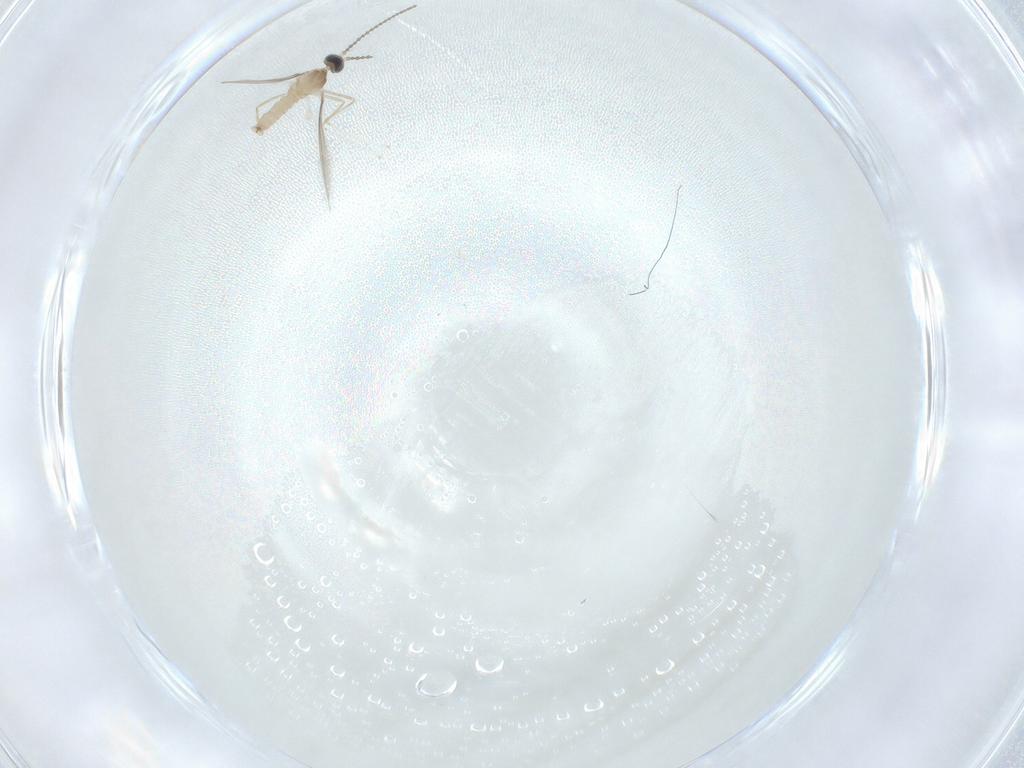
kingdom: Animalia
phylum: Arthropoda
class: Insecta
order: Diptera
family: Cecidomyiidae
